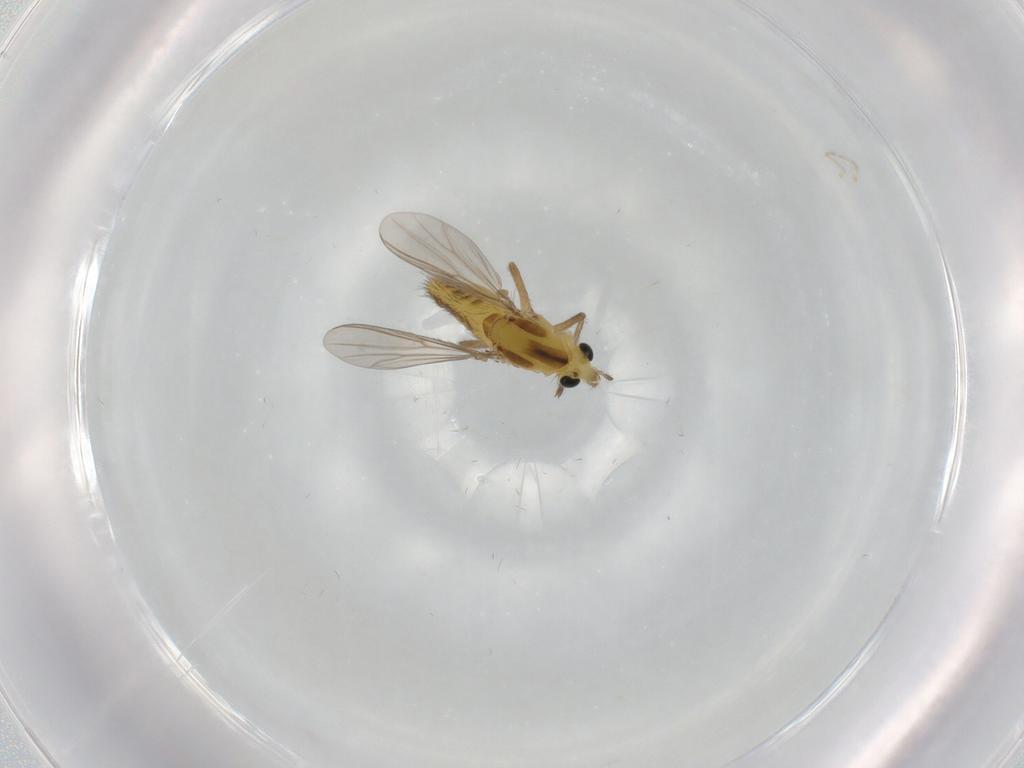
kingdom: Animalia
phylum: Arthropoda
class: Insecta
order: Diptera
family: Chironomidae
